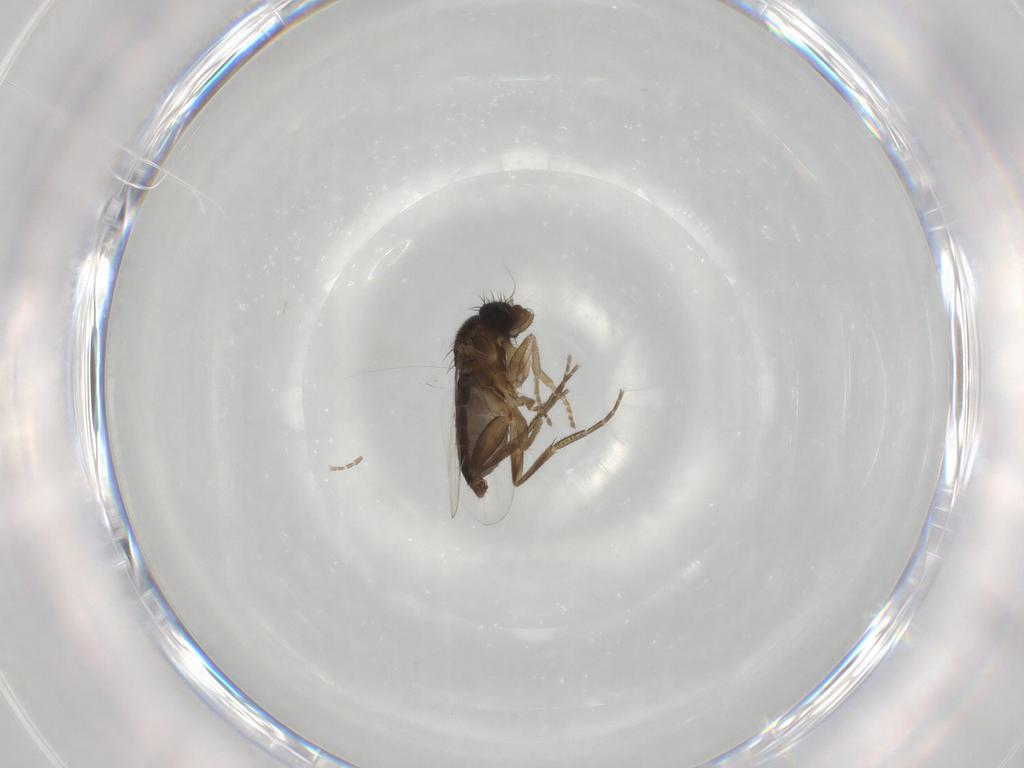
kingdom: Animalia
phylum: Arthropoda
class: Insecta
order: Diptera
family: Phoridae
